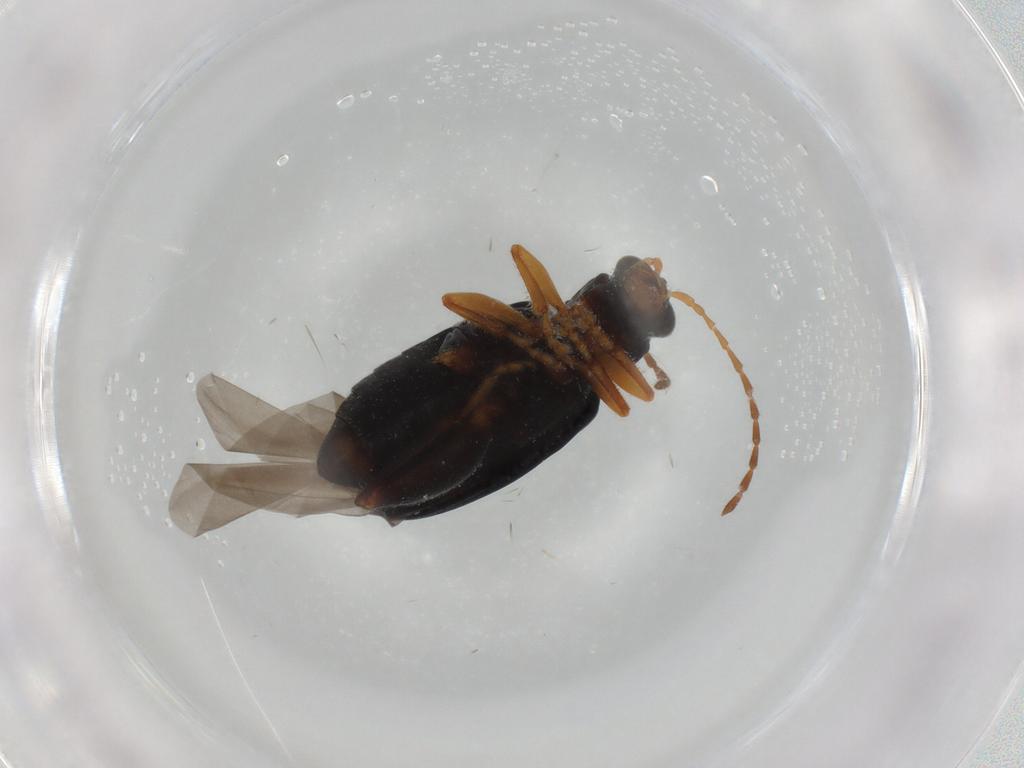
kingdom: Animalia
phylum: Arthropoda
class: Insecta
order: Coleoptera
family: Chrysomelidae
